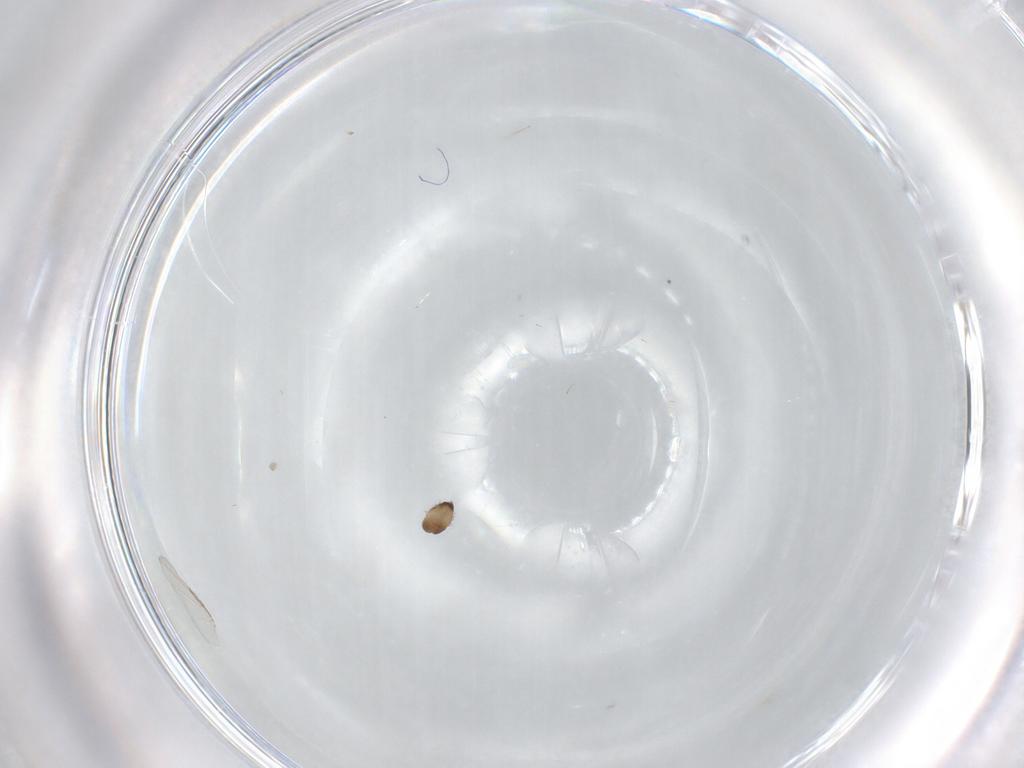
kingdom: Animalia
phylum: Arthropoda
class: Insecta
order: Diptera
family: Phoridae
